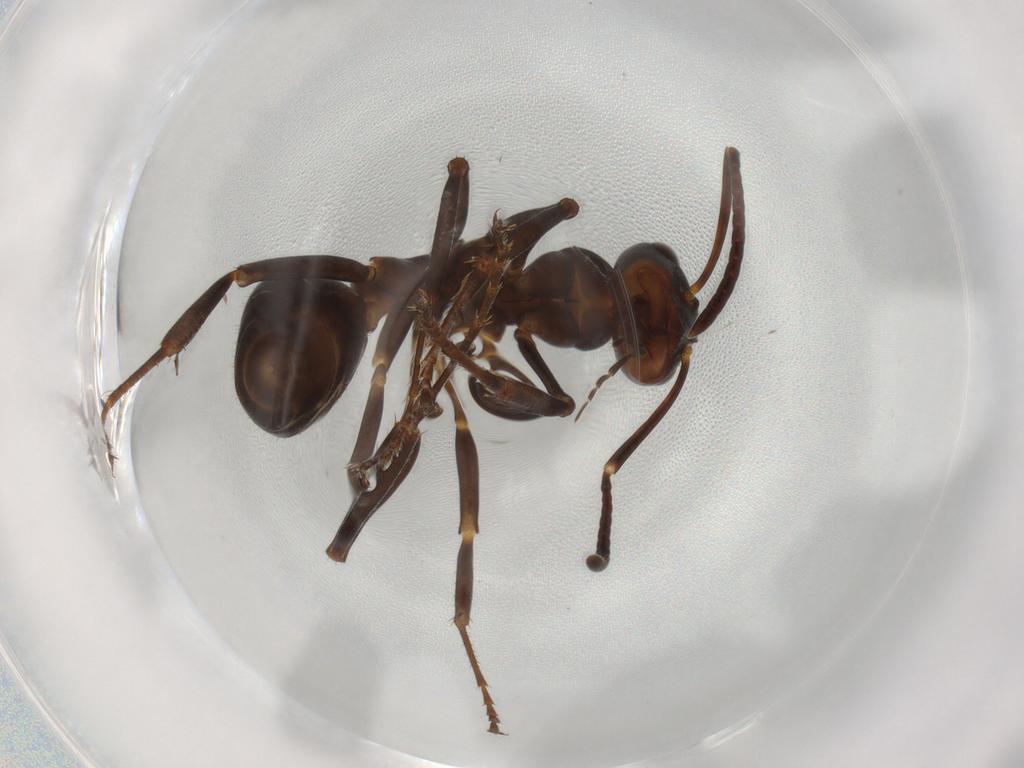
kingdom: Animalia
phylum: Arthropoda
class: Insecta
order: Hymenoptera
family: Formicidae
